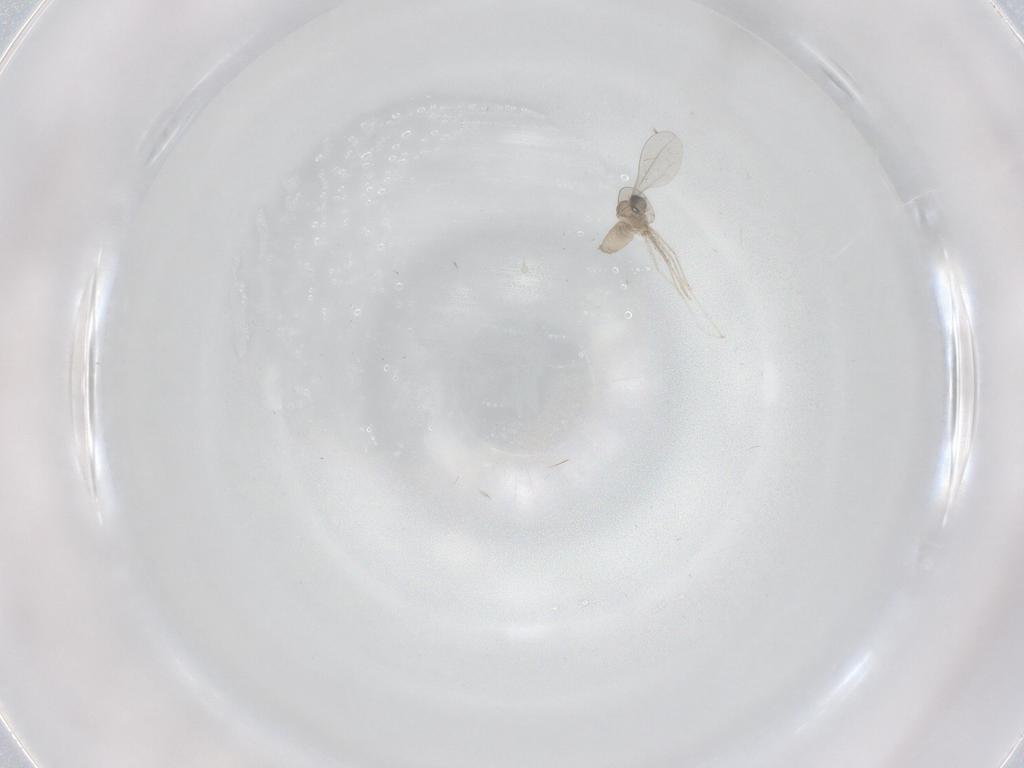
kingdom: Animalia
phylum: Arthropoda
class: Insecta
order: Diptera
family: Cecidomyiidae
